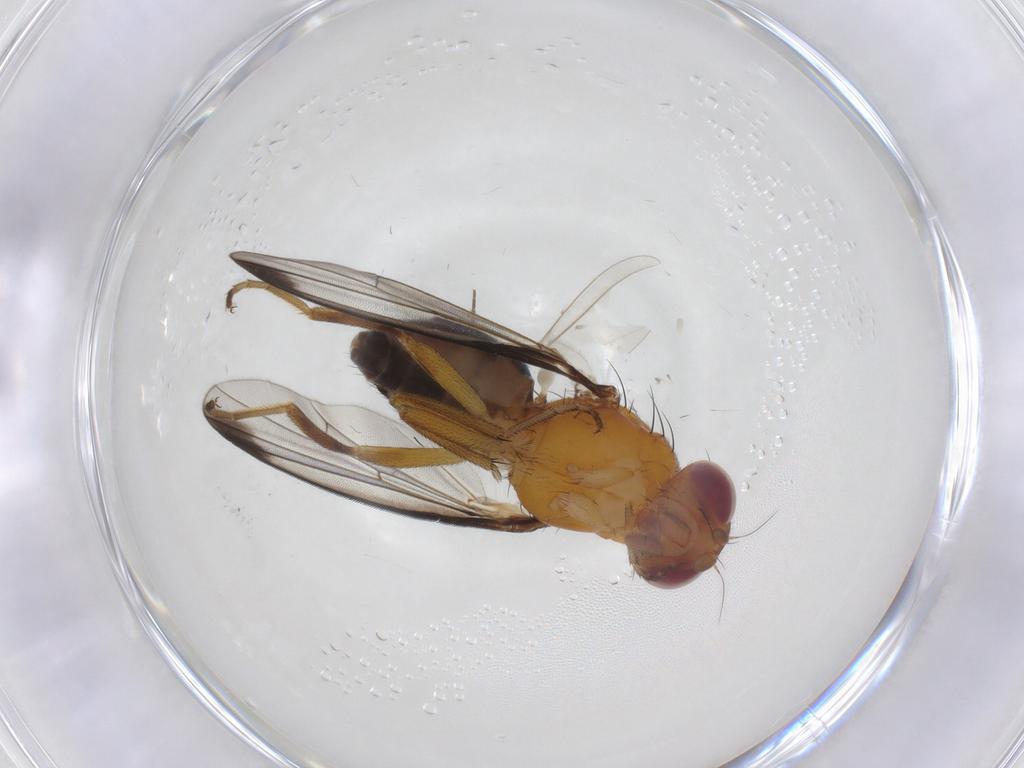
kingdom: Animalia
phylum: Arthropoda
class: Insecta
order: Diptera
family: Piophilidae
